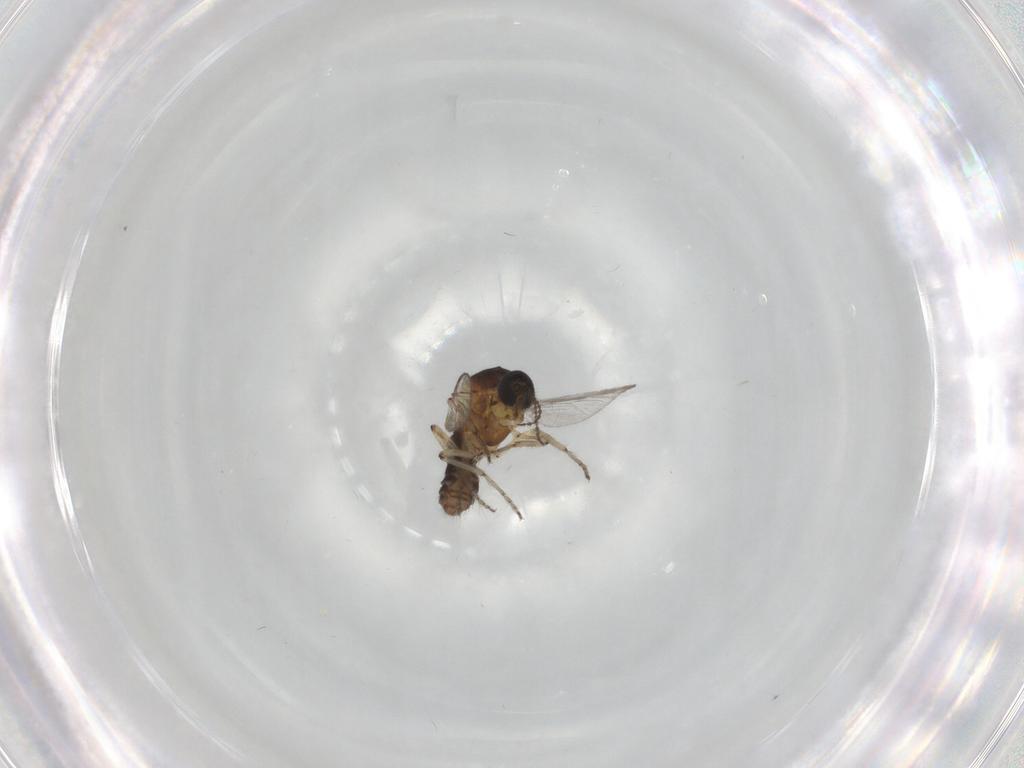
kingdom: Animalia
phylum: Arthropoda
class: Insecta
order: Diptera
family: Ceratopogonidae
